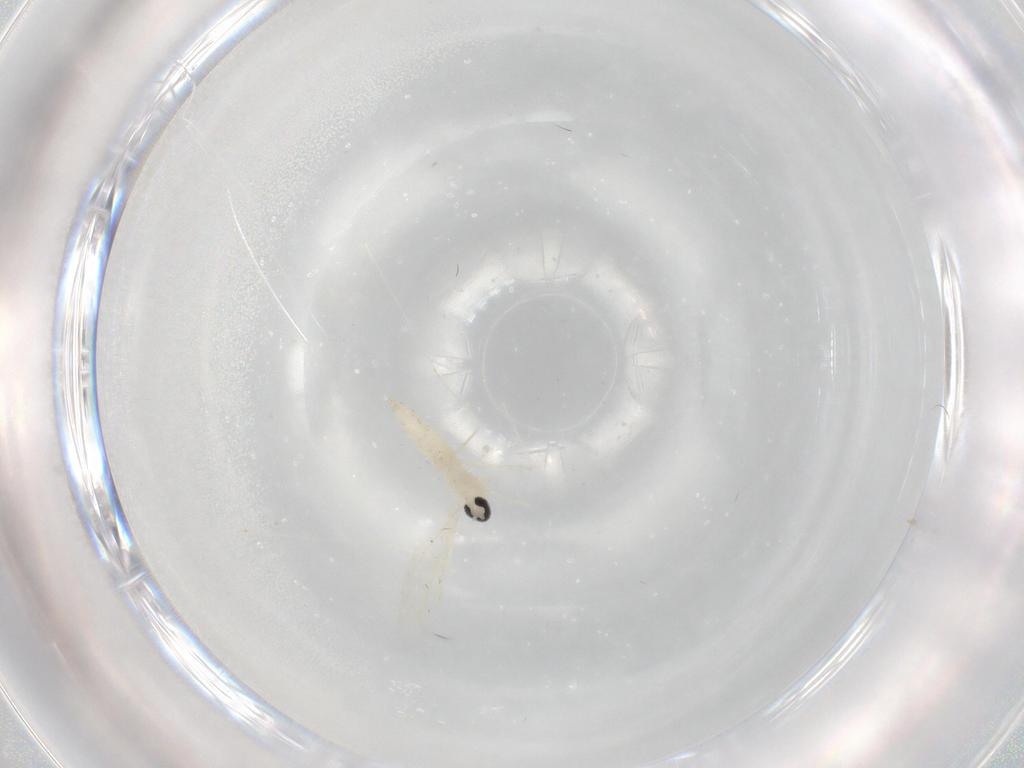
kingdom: Animalia
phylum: Arthropoda
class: Insecta
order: Diptera
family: Cecidomyiidae
